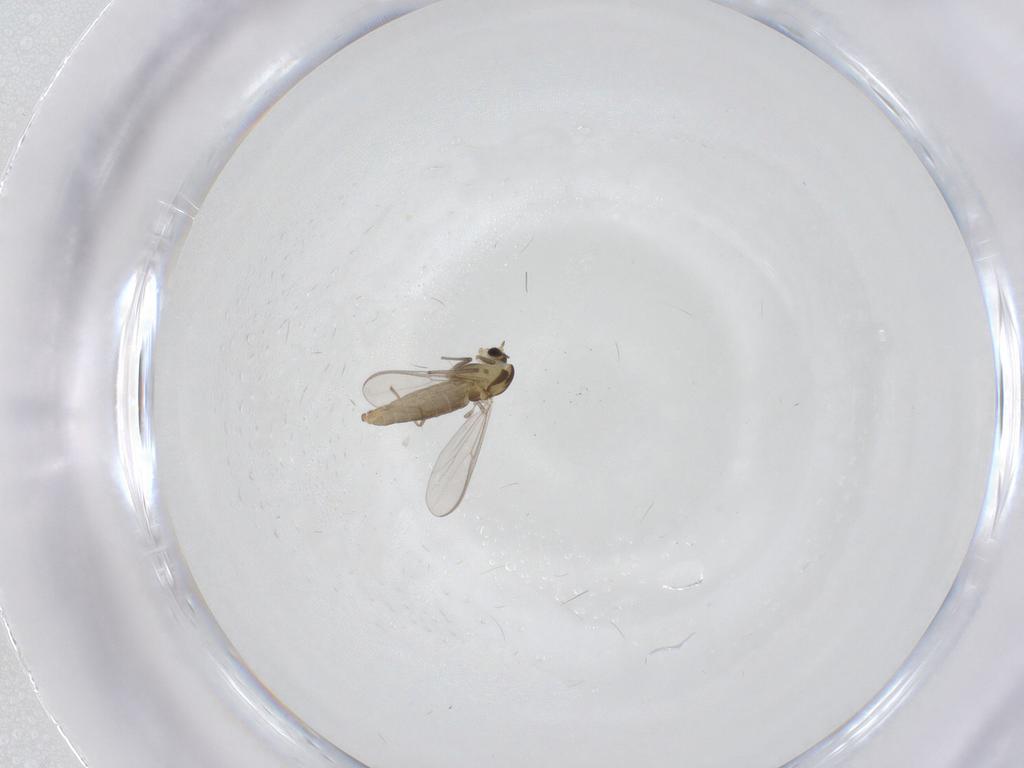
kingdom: Animalia
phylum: Arthropoda
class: Insecta
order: Diptera
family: Chironomidae
